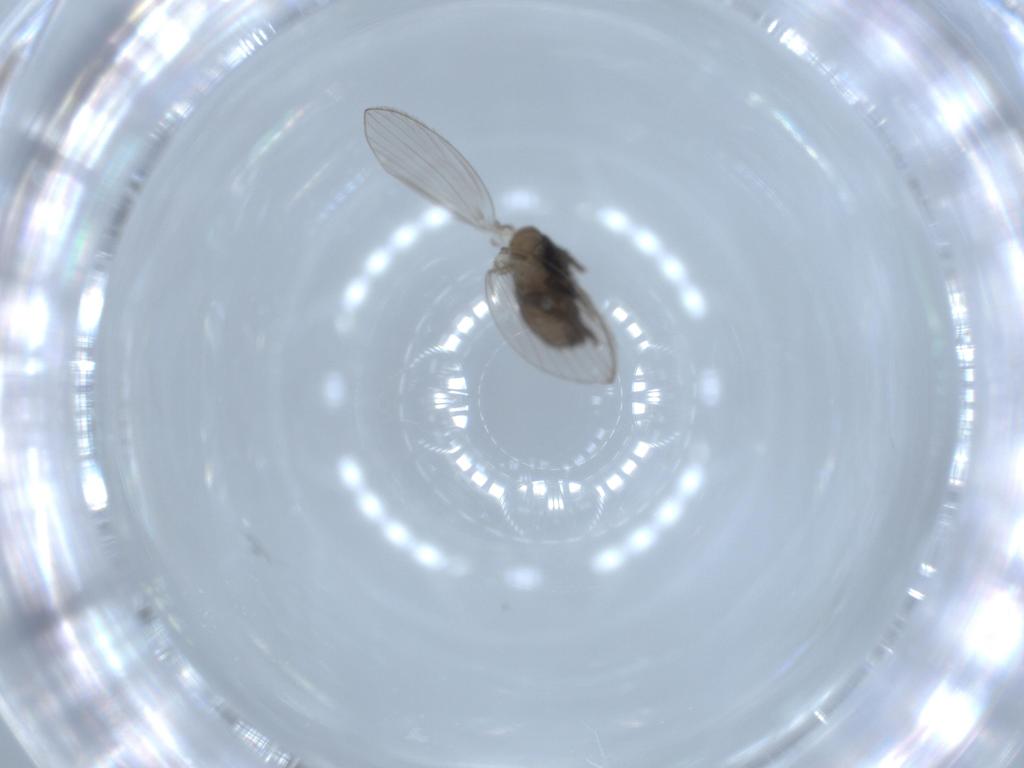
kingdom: Animalia
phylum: Arthropoda
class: Insecta
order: Diptera
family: Psychodidae
